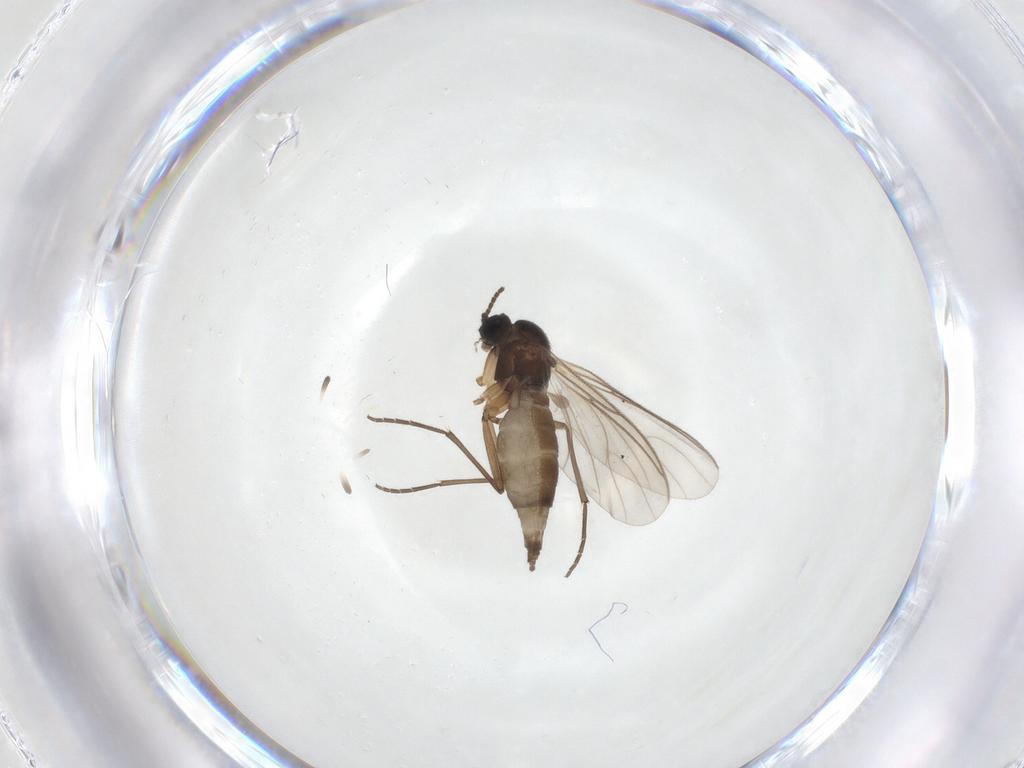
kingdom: Animalia
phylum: Arthropoda
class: Insecta
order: Diptera
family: Sciaridae
